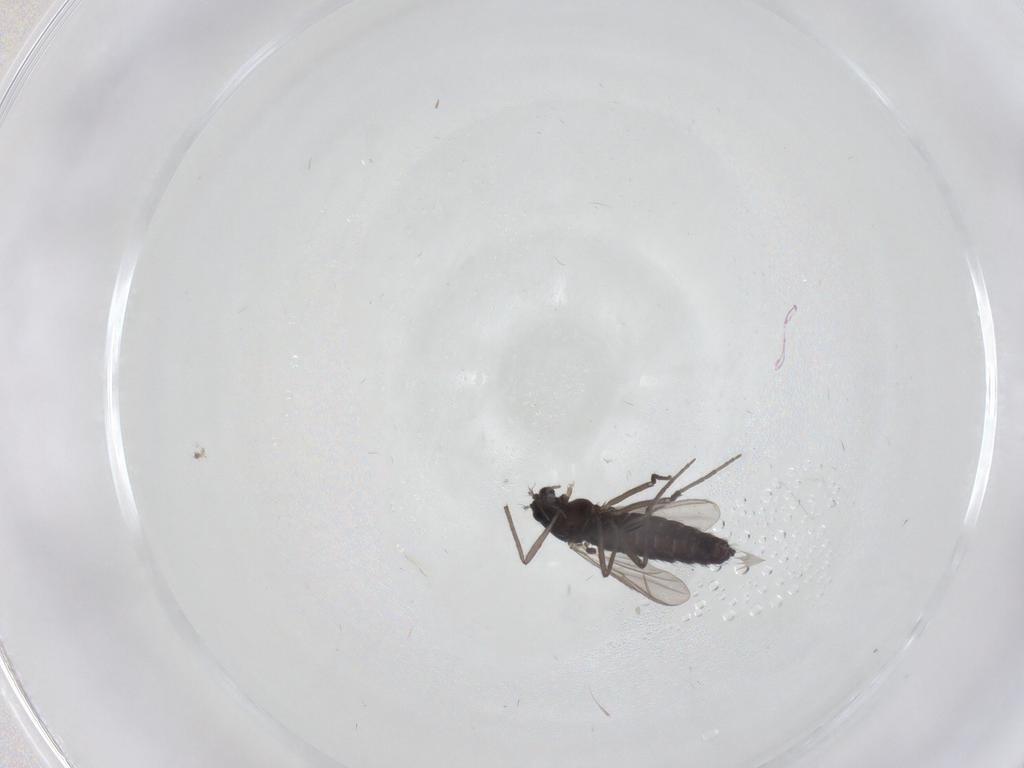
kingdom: Animalia
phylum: Arthropoda
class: Insecta
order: Diptera
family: Chironomidae
